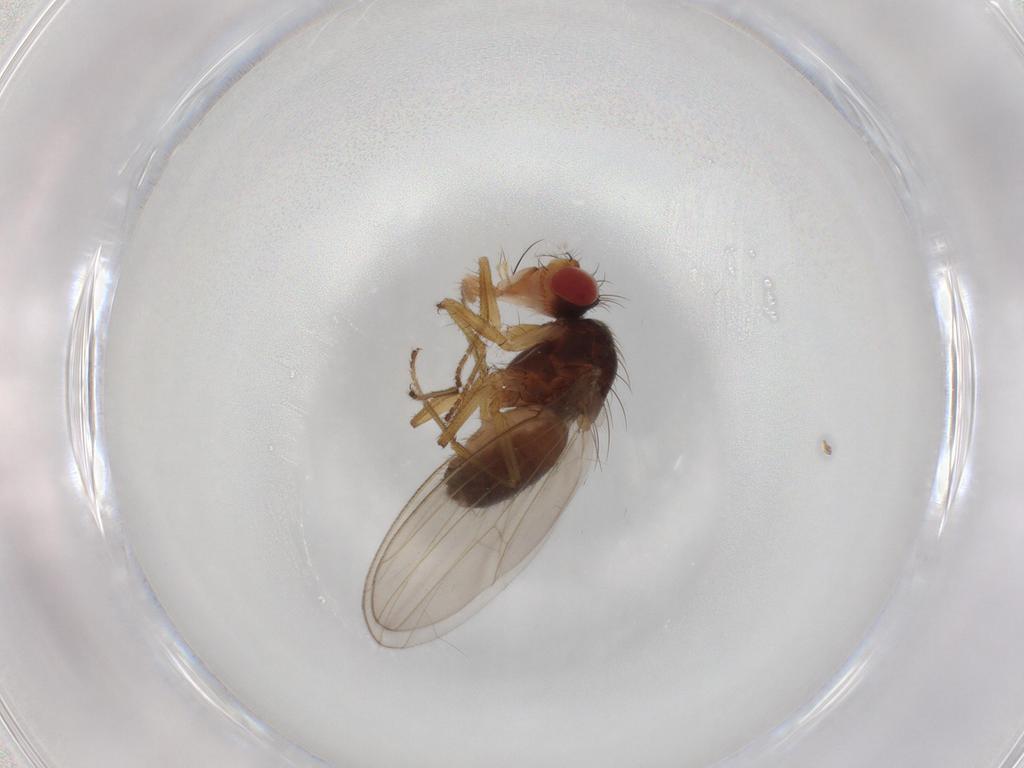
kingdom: Animalia
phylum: Arthropoda
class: Insecta
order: Diptera
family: Drosophilidae
